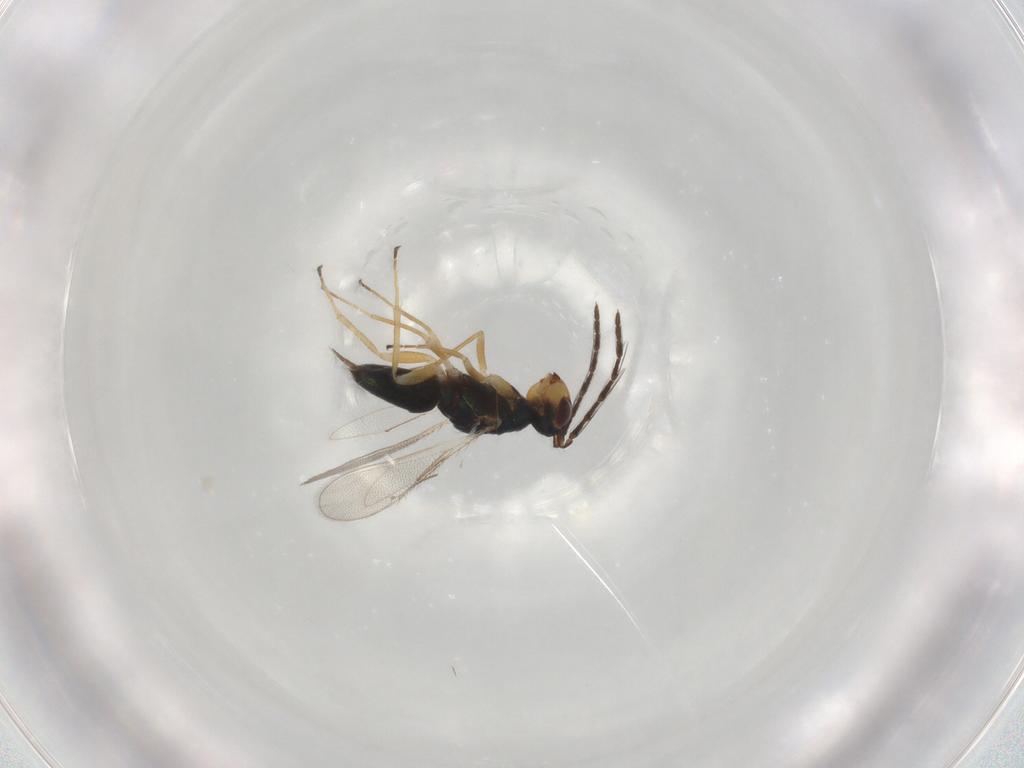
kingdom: Animalia
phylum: Arthropoda
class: Insecta
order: Hymenoptera
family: Eulophidae
